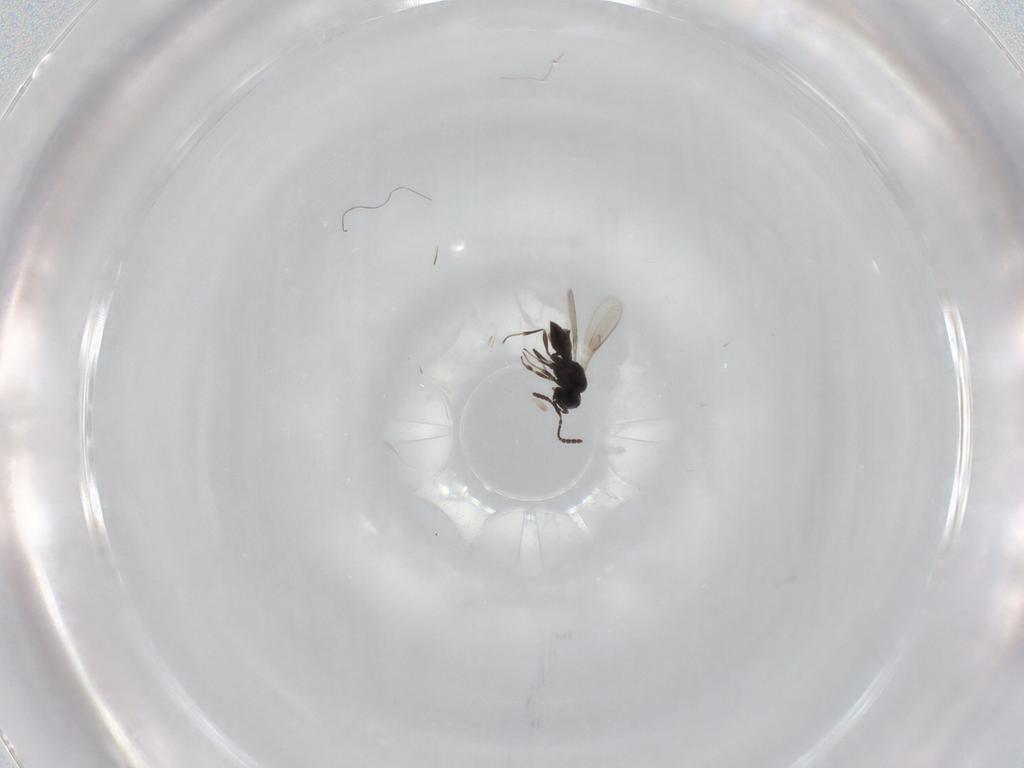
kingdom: Animalia
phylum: Arthropoda
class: Insecta
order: Hymenoptera
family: Scelionidae
